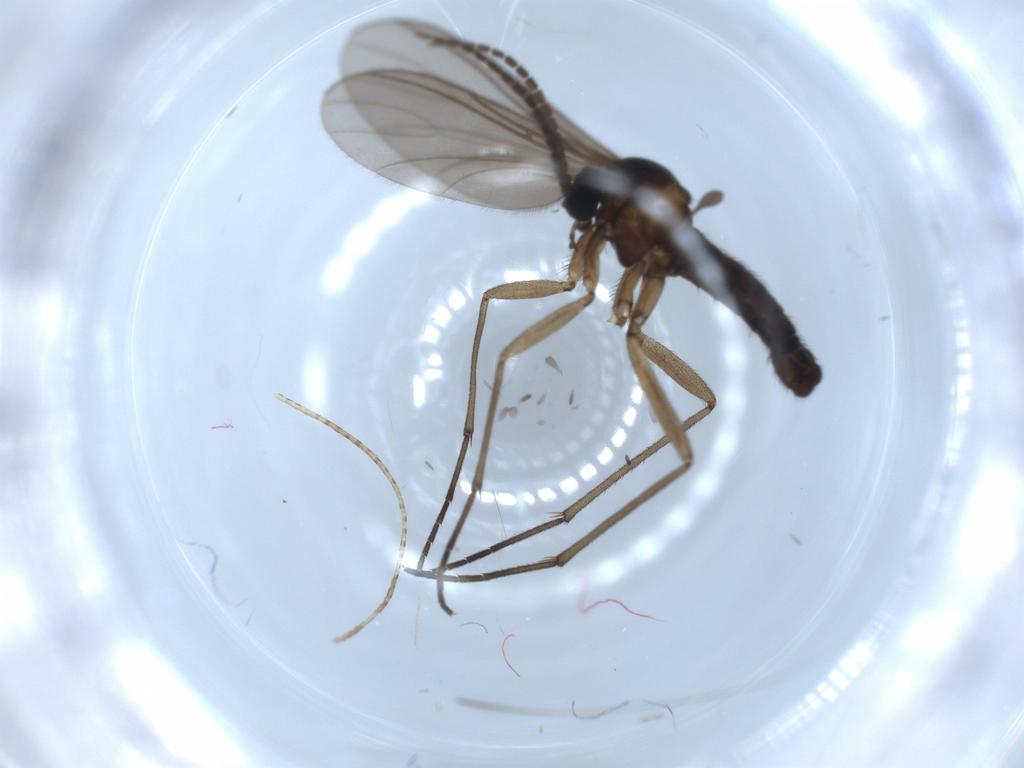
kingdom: Animalia
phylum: Arthropoda
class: Insecta
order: Diptera
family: Sciaridae
